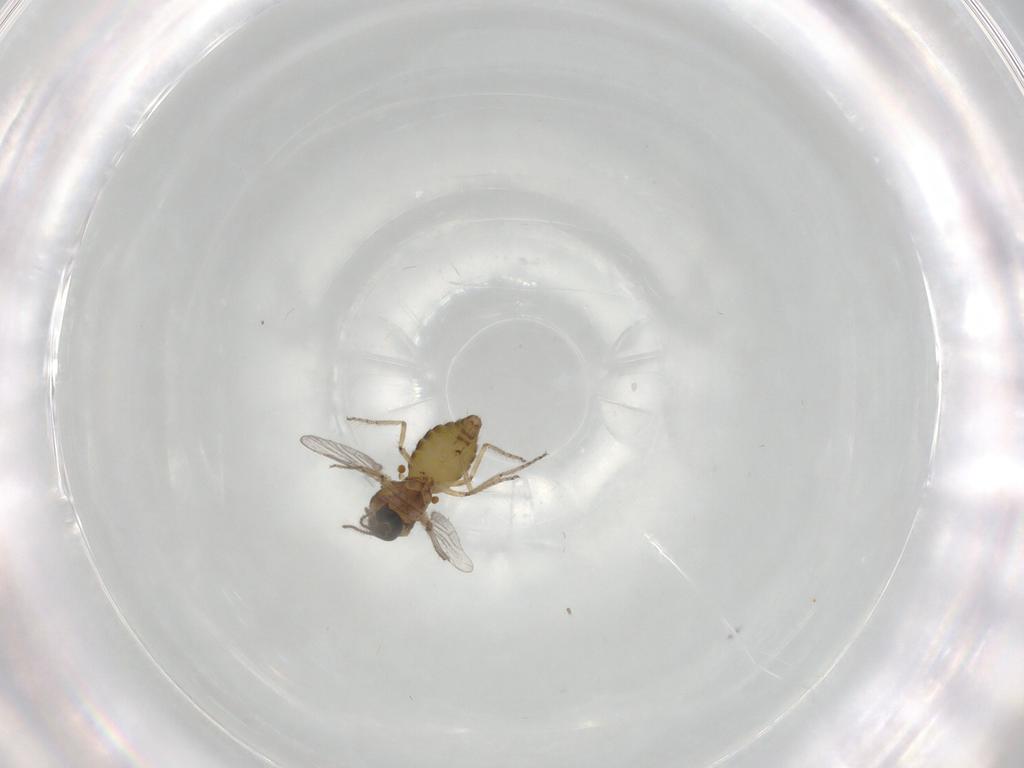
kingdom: Animalia
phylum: Arthropoda
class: Insecta
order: Diptera
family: Ceratopogonidae
